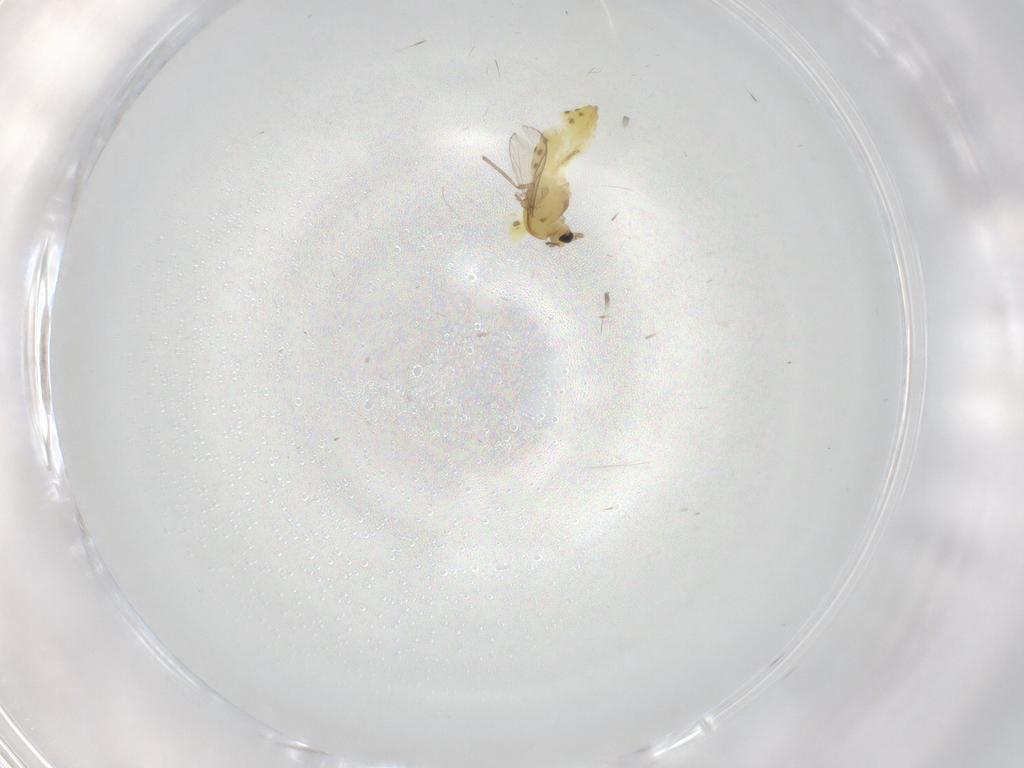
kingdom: Animalia
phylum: Arthropoda
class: Insecta
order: Diptera
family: Chironomidae
